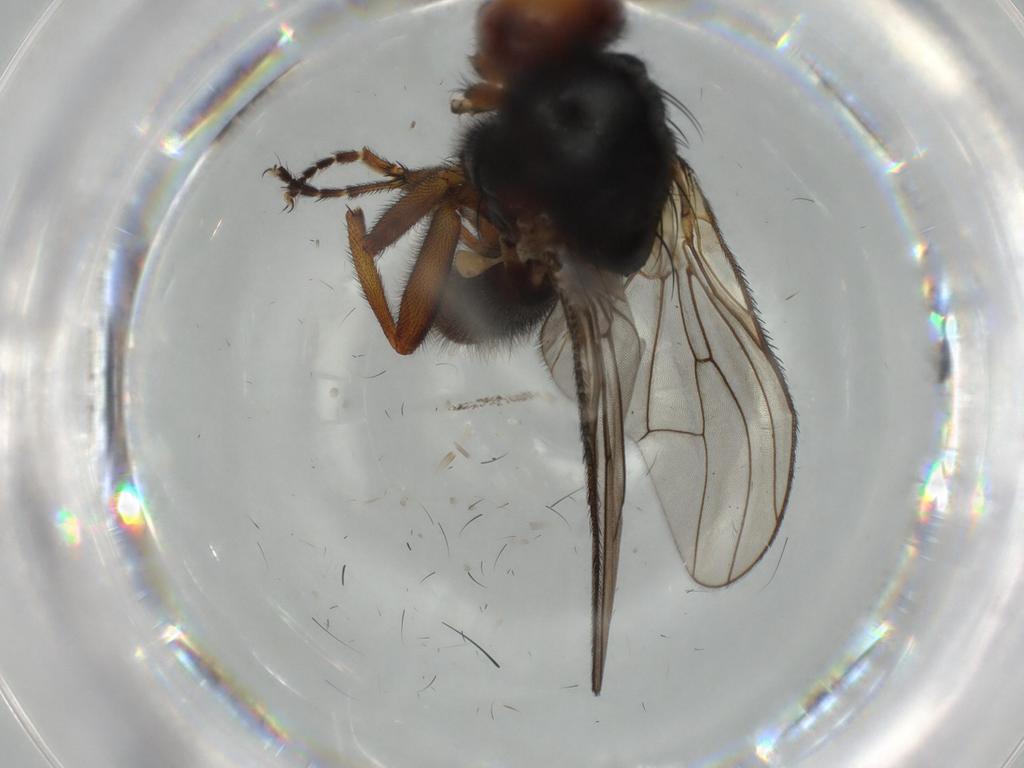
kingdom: Animalia
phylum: Arthropoda
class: Insecta
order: Diptera
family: Heleomyzidae
